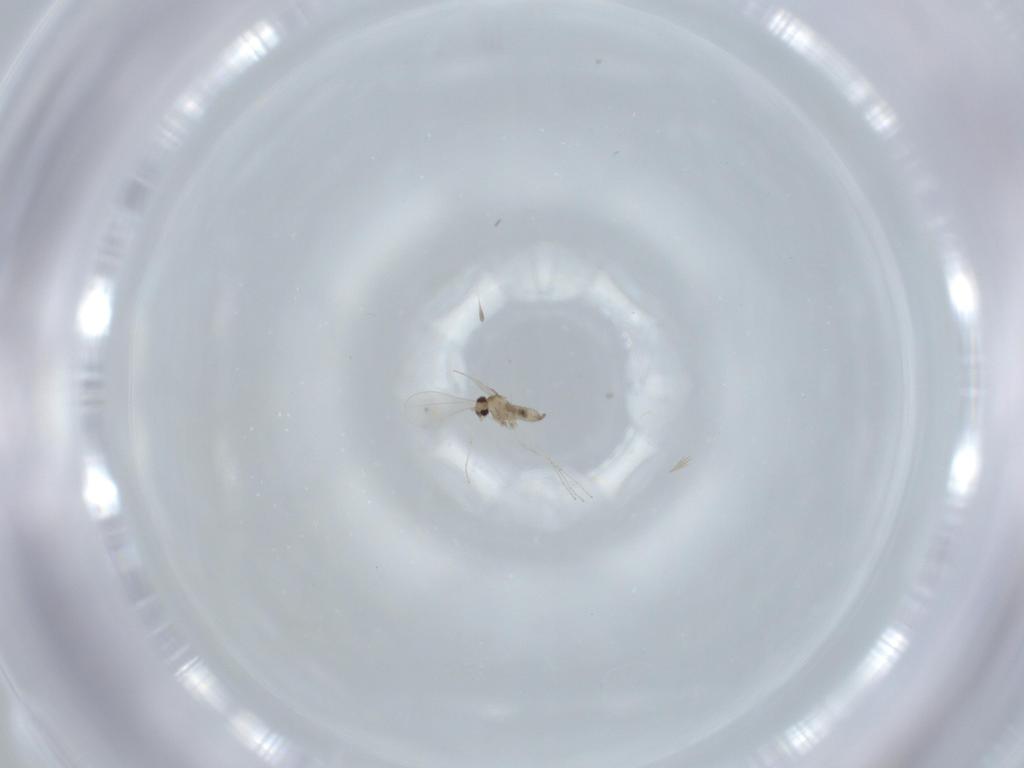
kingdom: Animalia
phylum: Arthropoda
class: Insecta
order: Diptera
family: Cecidomyiidae
